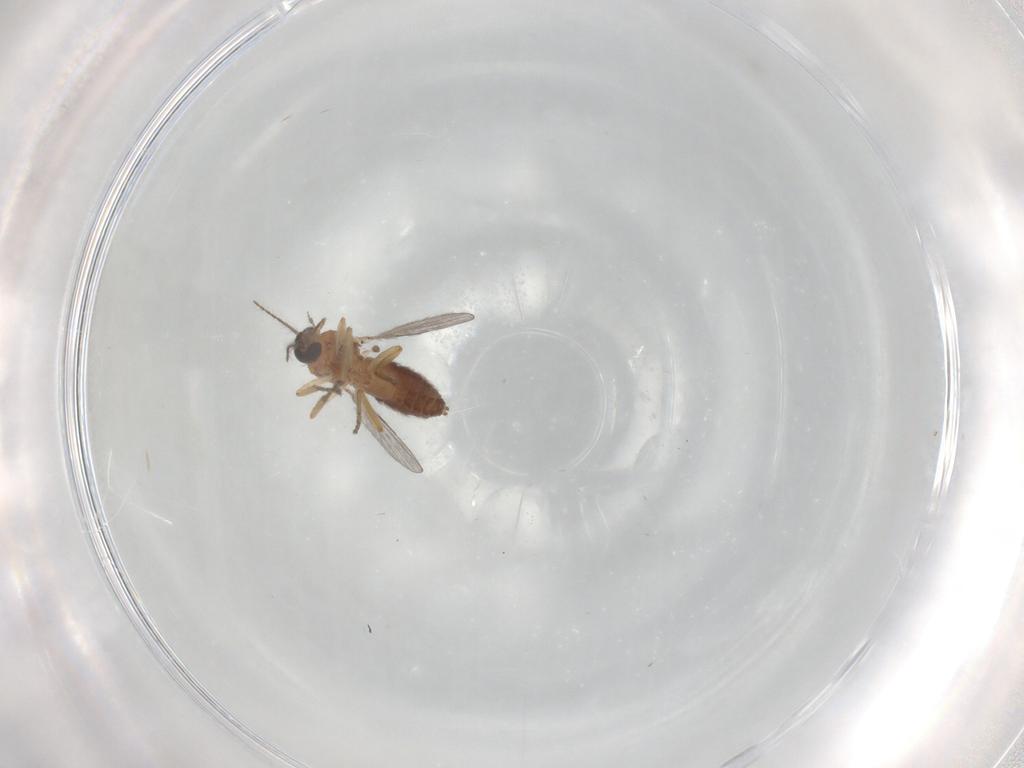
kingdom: Animalia
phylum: Arthropoda
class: Insecta
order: Diptera
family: Ceratopogonidae
